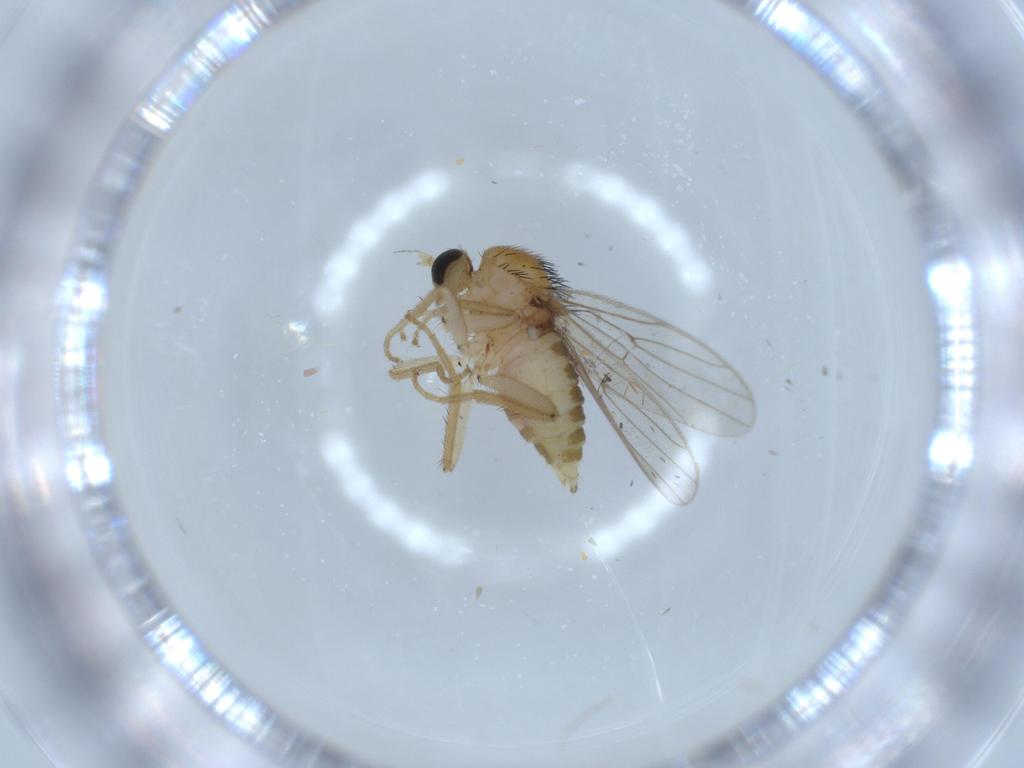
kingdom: Animalia
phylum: Arthropoda
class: Insecta
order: Diptera
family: Hybotidae
